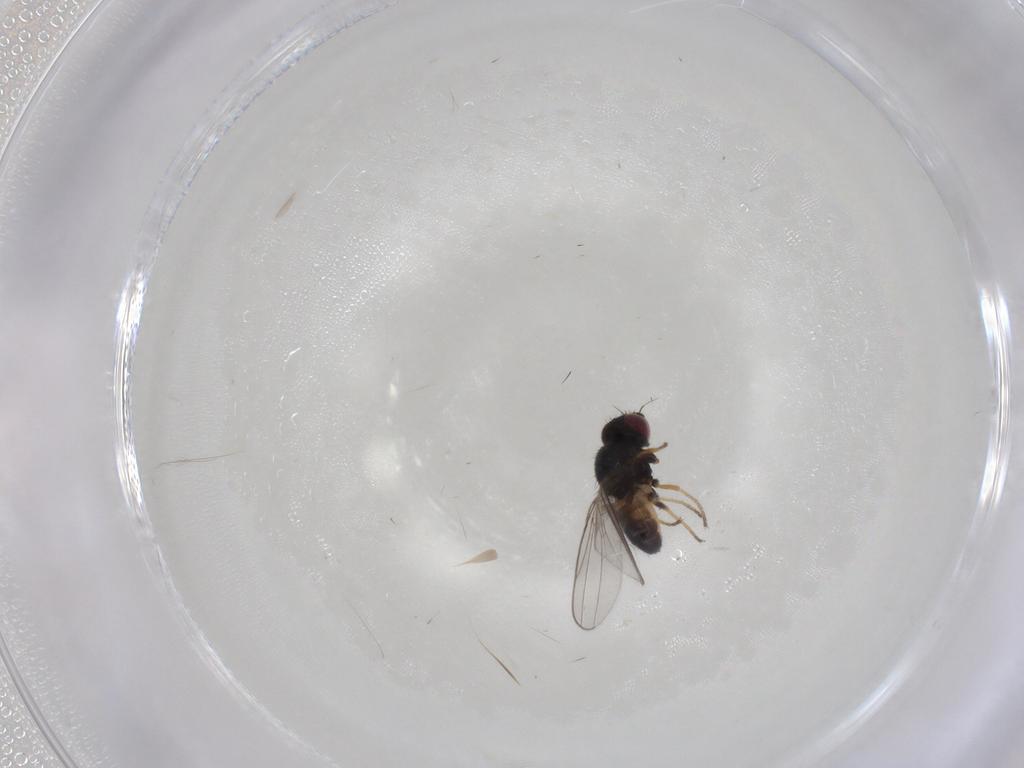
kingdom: Animalia
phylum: Arthropoda
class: Insecta
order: Diptera
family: Chloropidae
